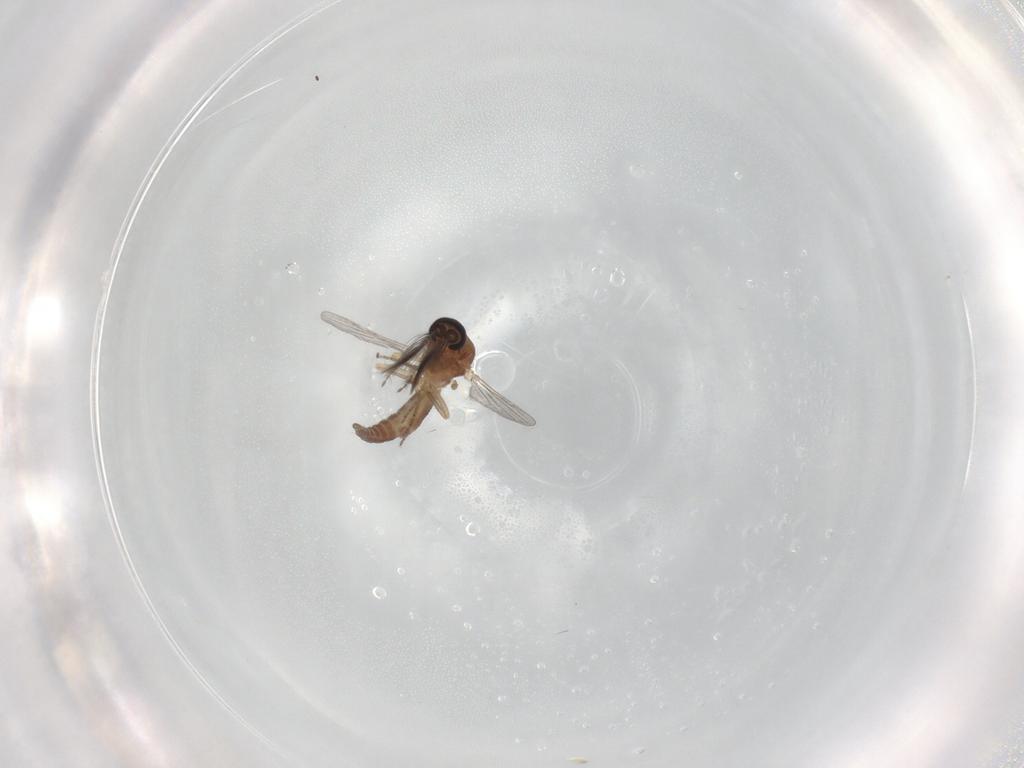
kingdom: Animalia
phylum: Arthropoda
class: Insecta
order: Diptera
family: Ceratopogonidae
